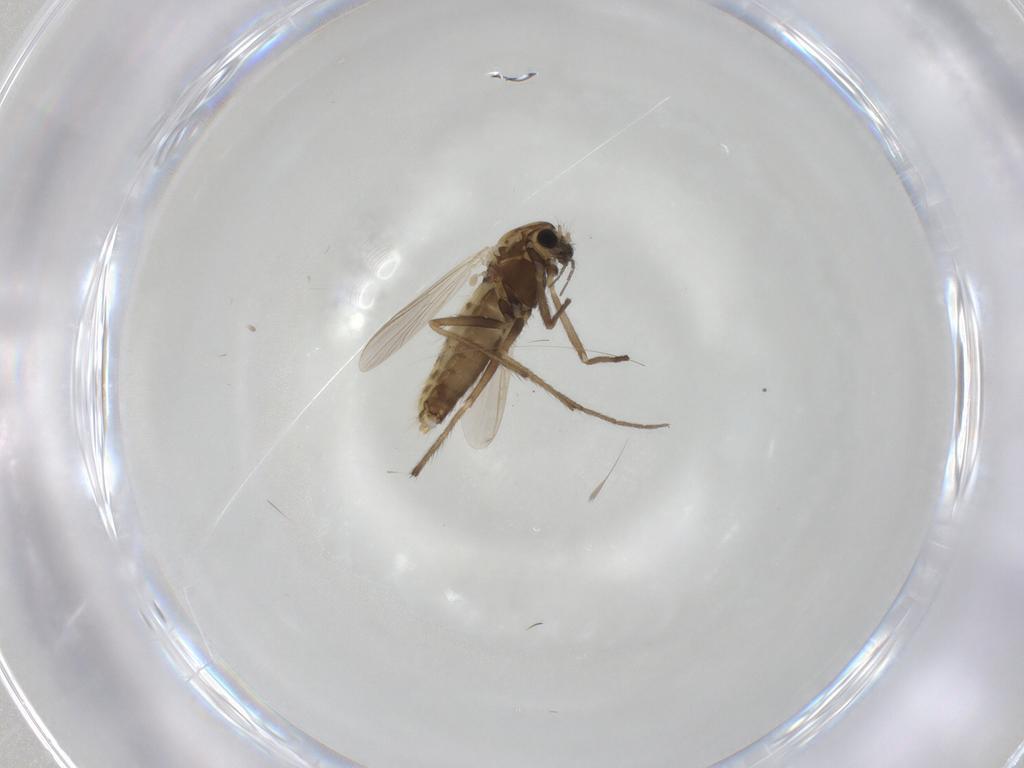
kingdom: Animalia
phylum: Arthropoda
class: Insecta
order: Diptera
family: Chironomidae
